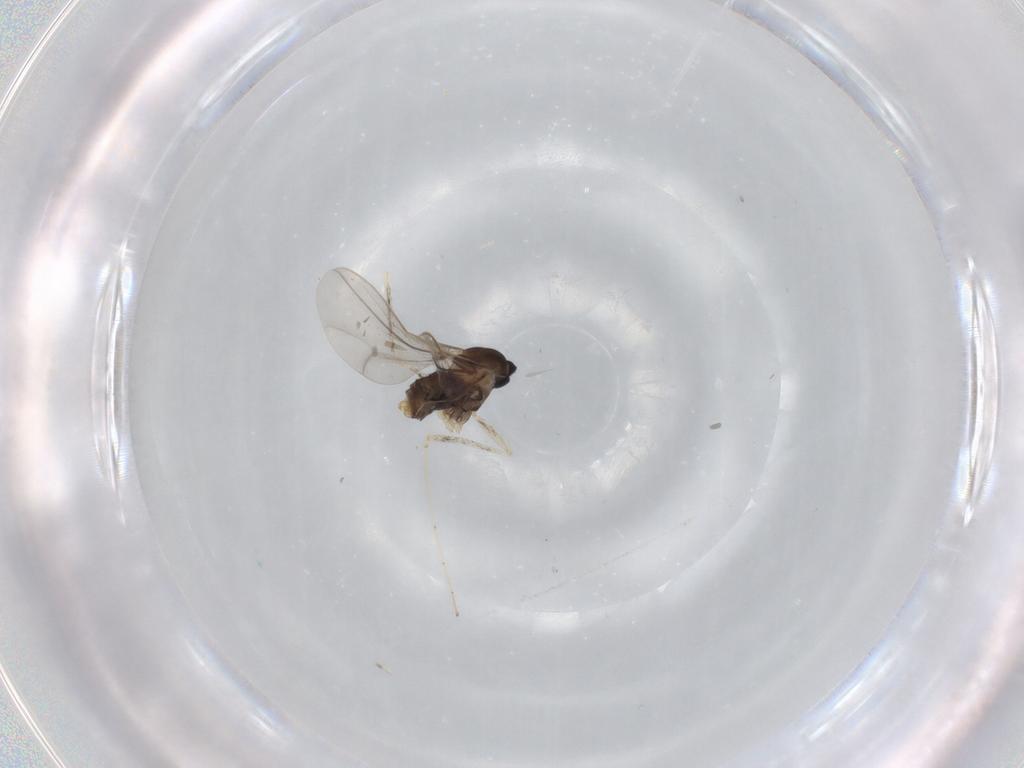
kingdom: Animalia
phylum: Arthropoda
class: Insecta
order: Diptera
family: Cecidomyiidae
